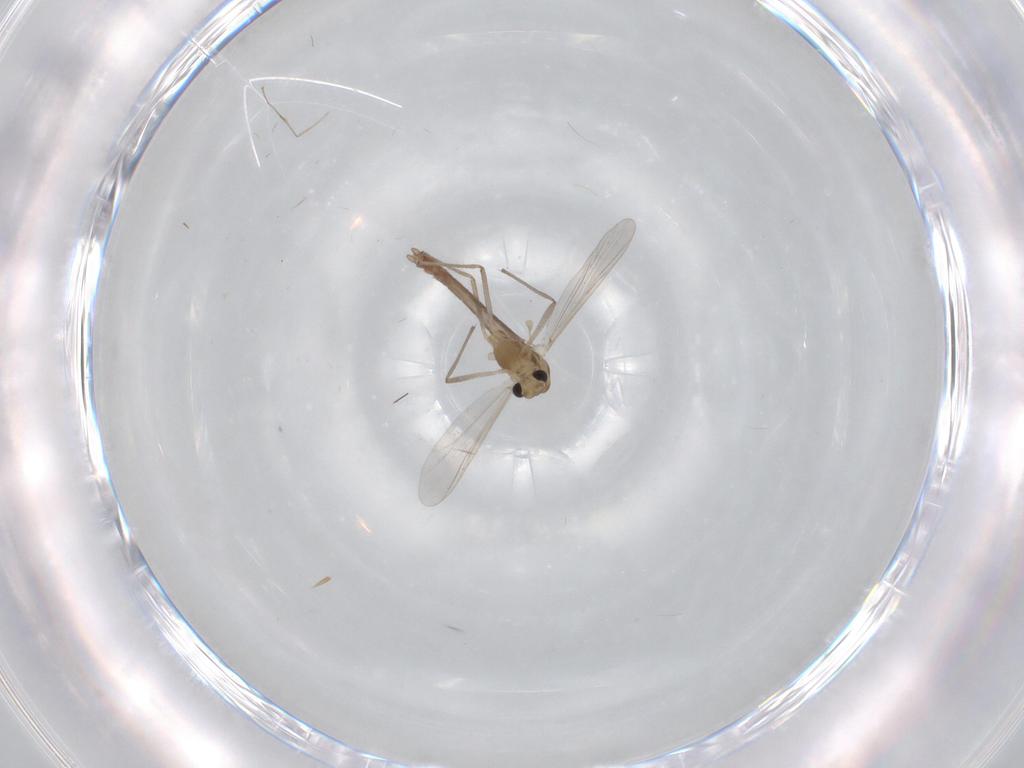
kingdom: Animalia
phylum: Arthropoda
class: Insecta
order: Diptera
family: Chironomidae
